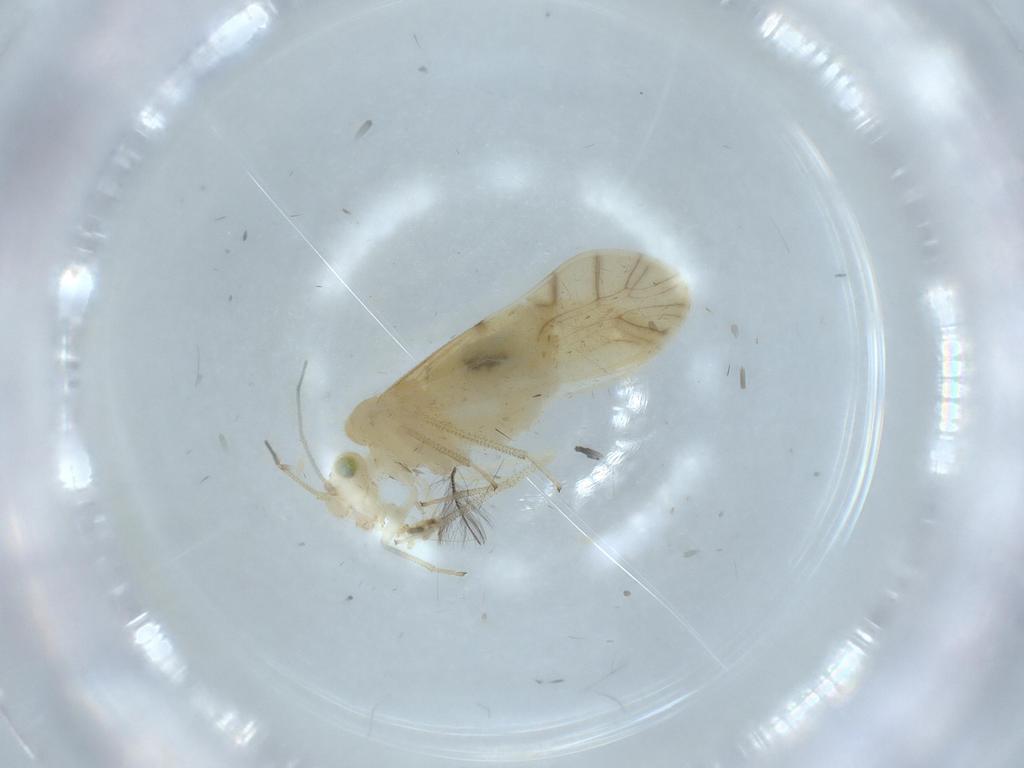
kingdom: Animalia
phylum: Arthropoda
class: Insecta
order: Psocodea
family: Caeciliusidae
